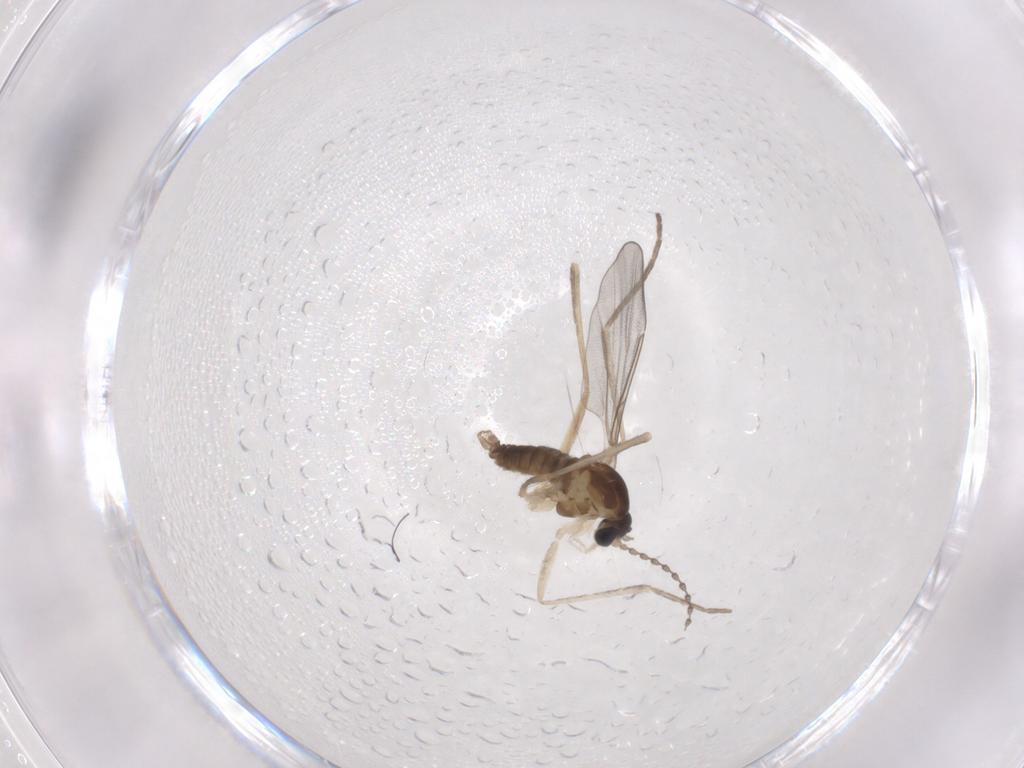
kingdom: Animalia
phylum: Arthropoda
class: Insecta
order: Diptera
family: Cecidomyiidae
